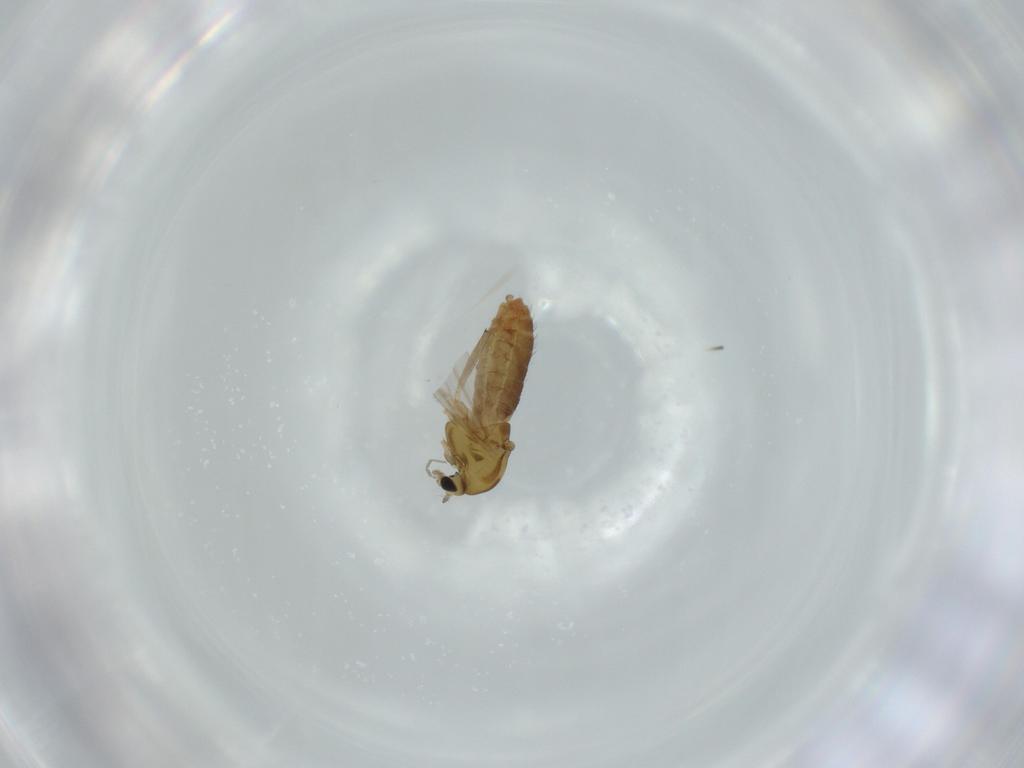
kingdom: Animalia
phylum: Arthropoda
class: Insecta
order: Diptera
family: Chironomidae
